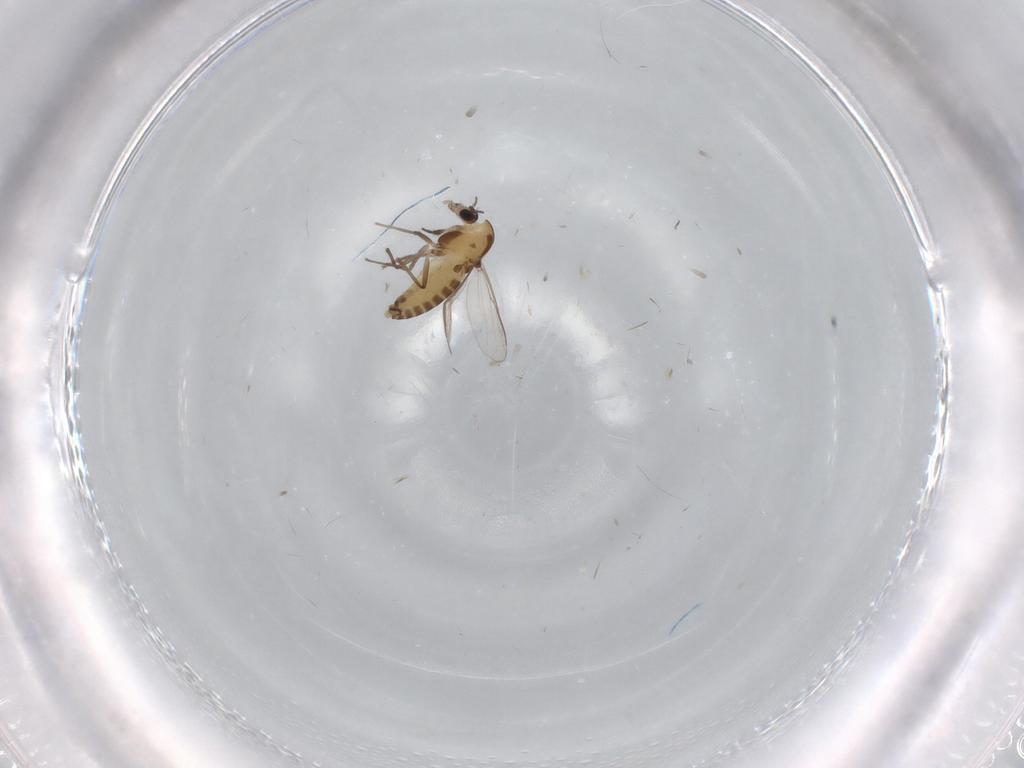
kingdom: Animalia
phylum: Arthropoda
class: Insecta
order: Diptera
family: Chironomidae
